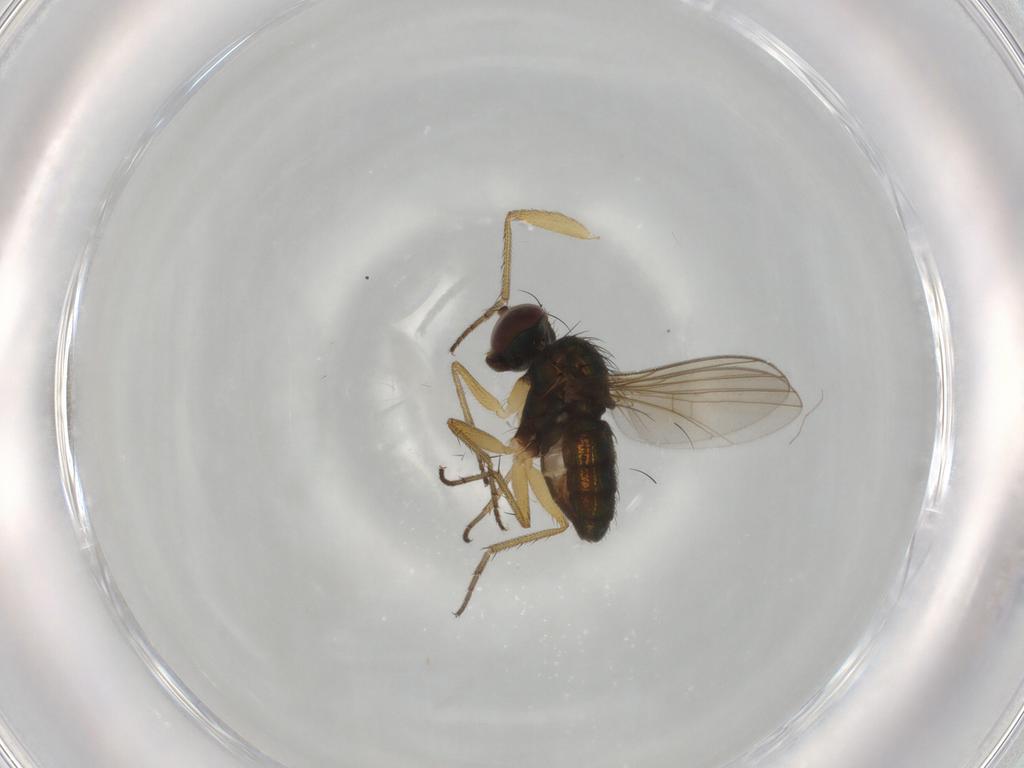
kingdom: Animalia
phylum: Arthropoda
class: Insecta
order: Diptera
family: Dolichopodidae
